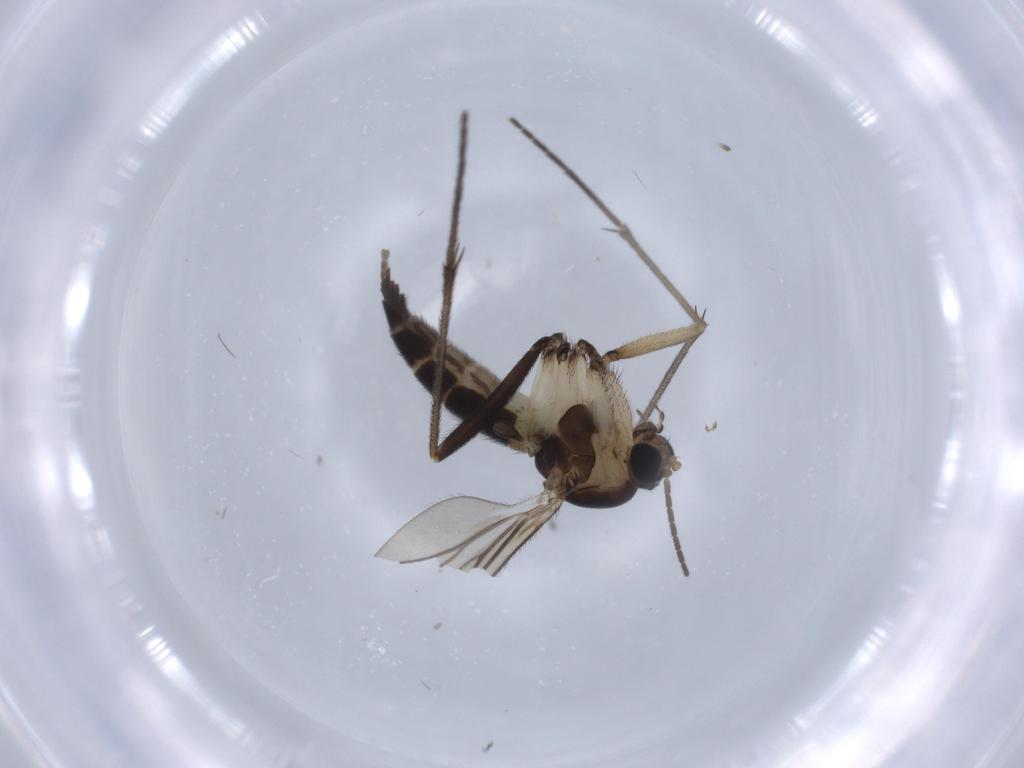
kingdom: Animalia
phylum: Arthropoda
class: Insecta
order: Diptera
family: Sciaridae
